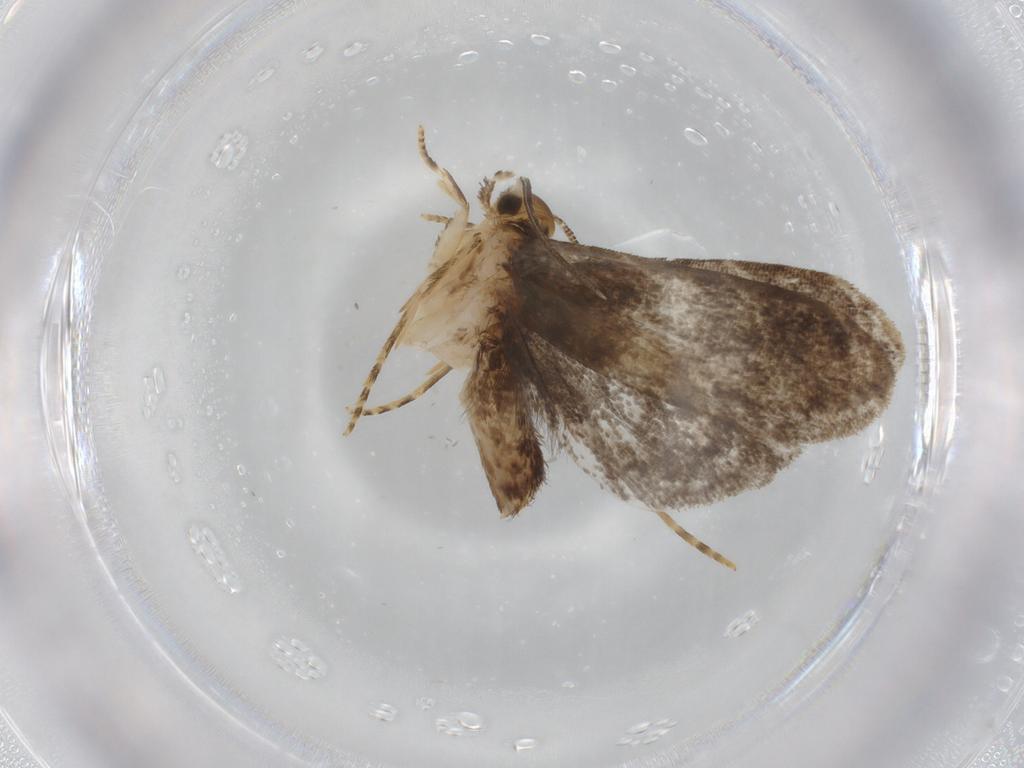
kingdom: Animalia
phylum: Arthropoda
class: Insecta
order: Lepidoptera
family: Dryadaulidae
